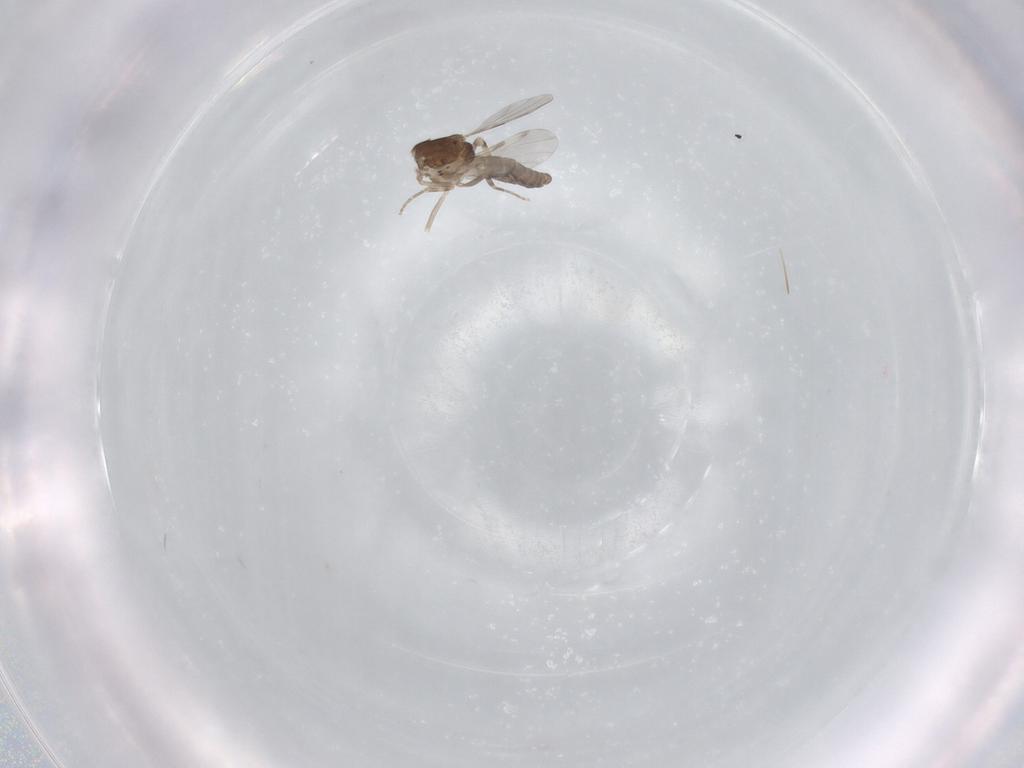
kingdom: Animalia
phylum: Arthropoda
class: Insecta
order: Diptera
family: Ceratopogonidae
